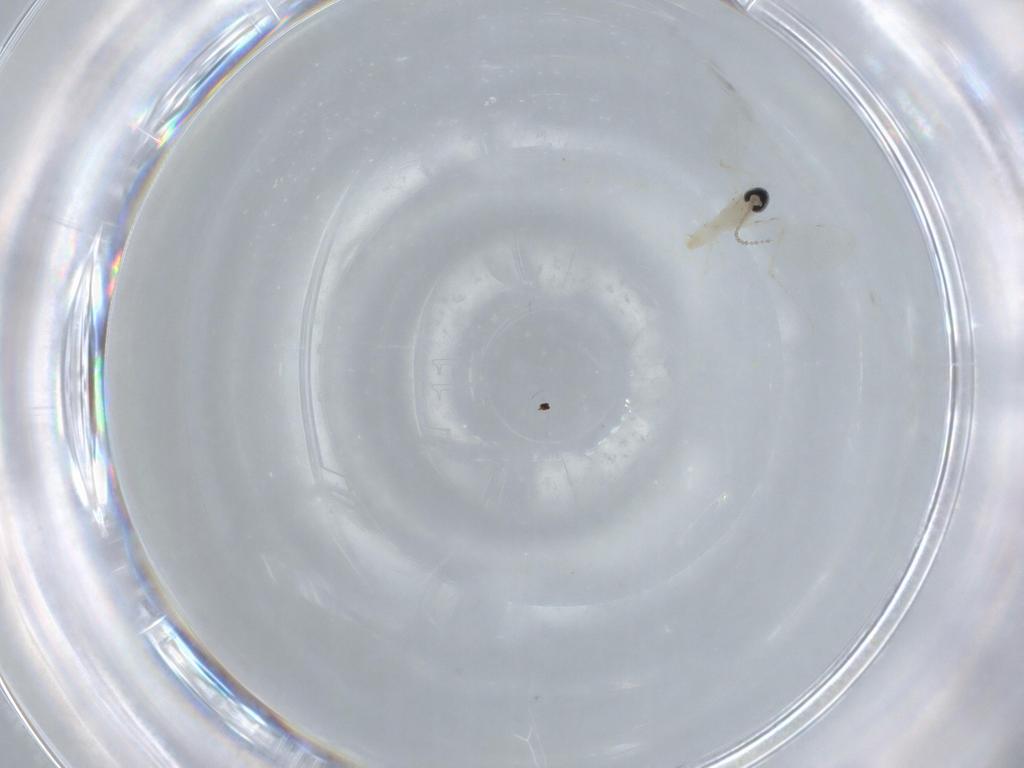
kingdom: Animalia
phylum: Arthropoda
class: Insecta
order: Diptera
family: Cecidomyiidae
